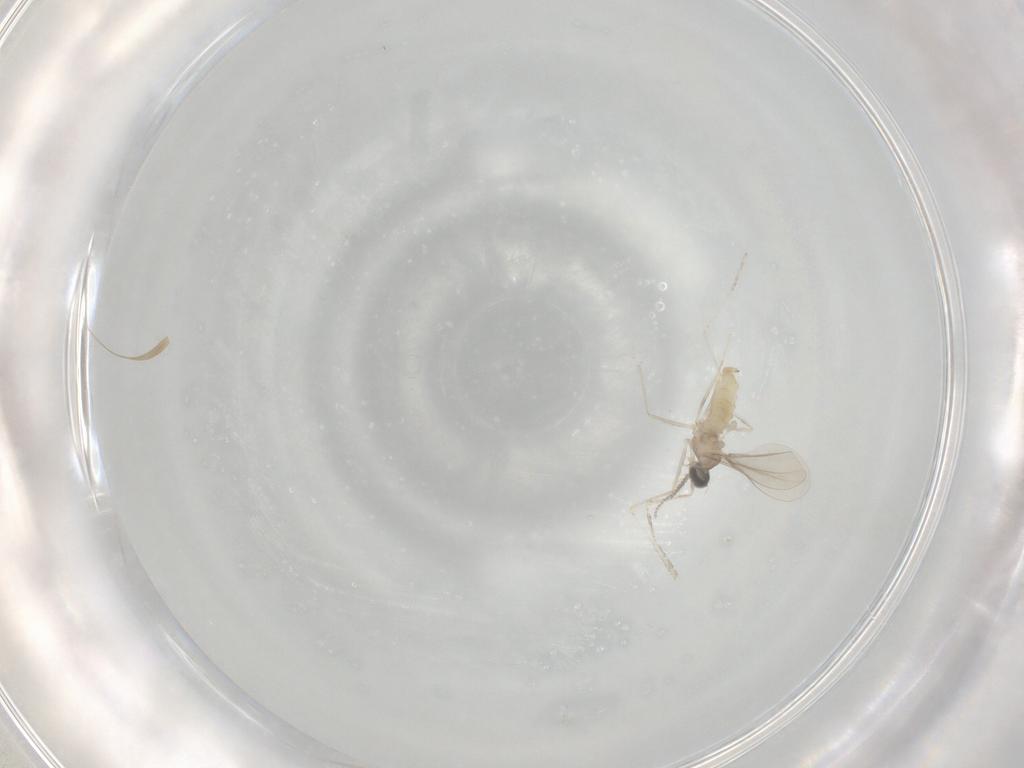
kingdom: Animalia
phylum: Arthropoda
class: Insecta
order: Diptera
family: Cecidomyiidae
